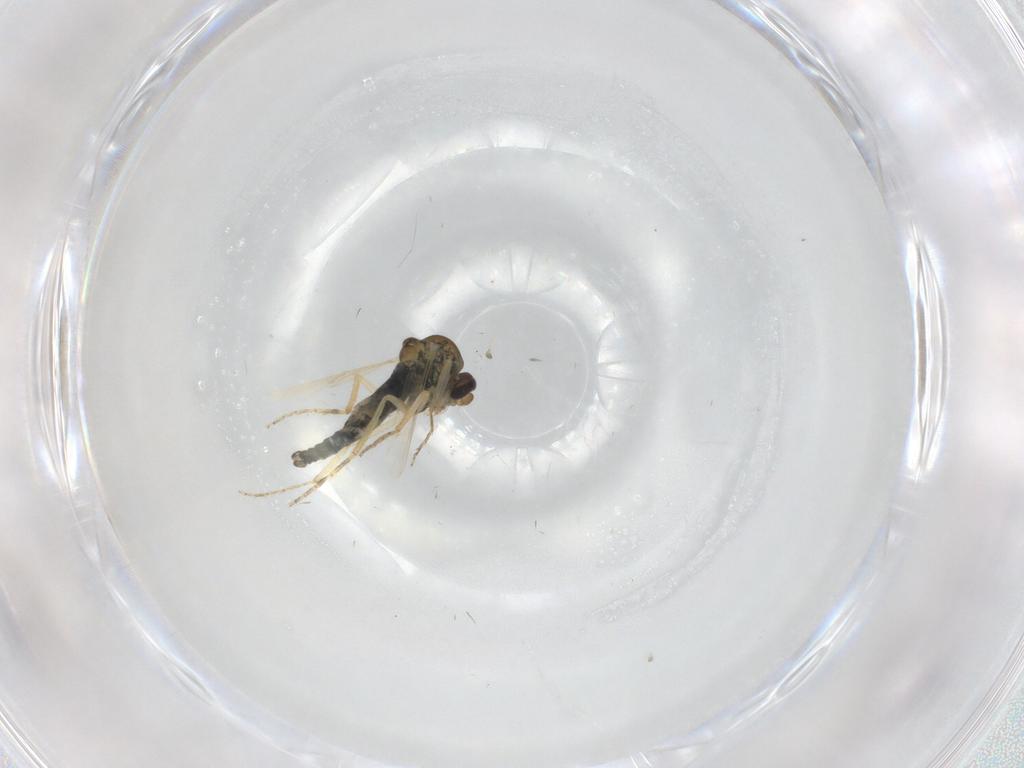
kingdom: Animalia
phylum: Arthropoda
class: Insecta
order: Diptera
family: Ceratopogonidae
